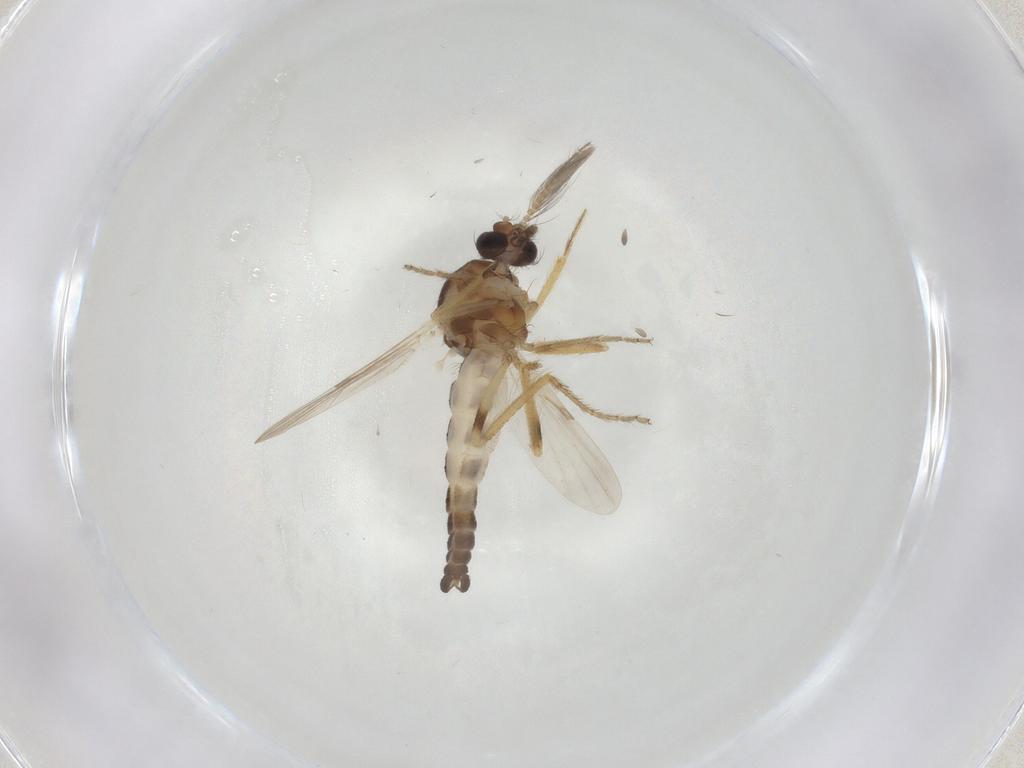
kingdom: Animalia
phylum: Arthropoda
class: Insecta
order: Diptera
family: Ceratopogonidae
